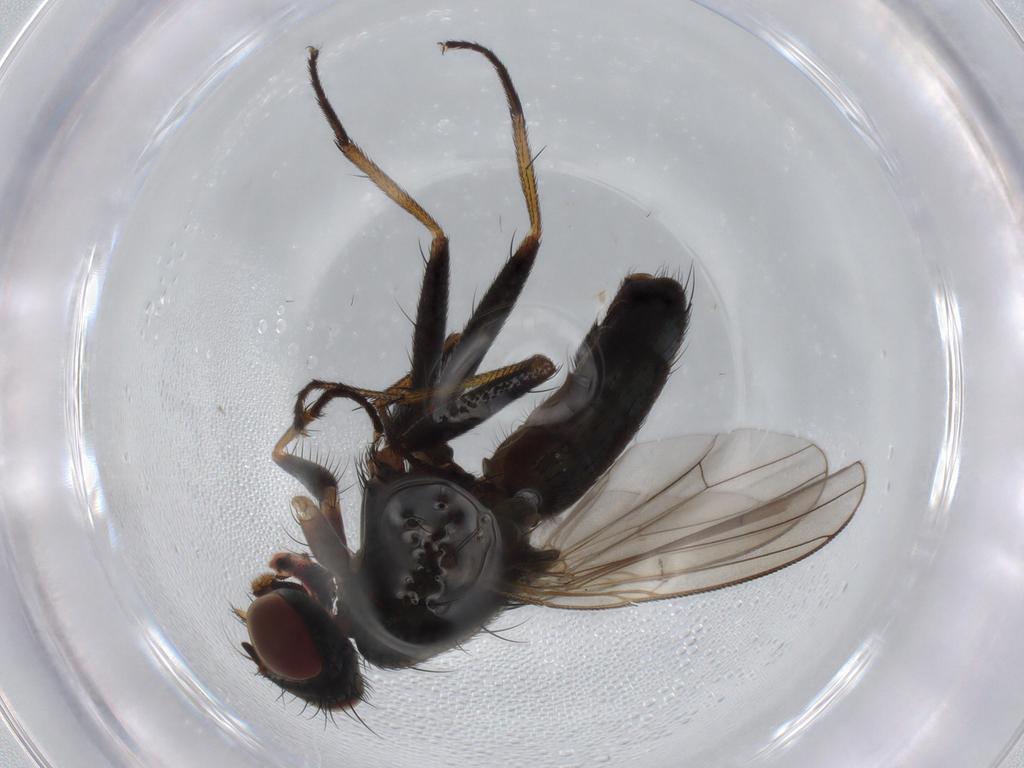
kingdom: Animalia
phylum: Arthropoda
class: Insecta
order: Diptera
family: Muscidae
